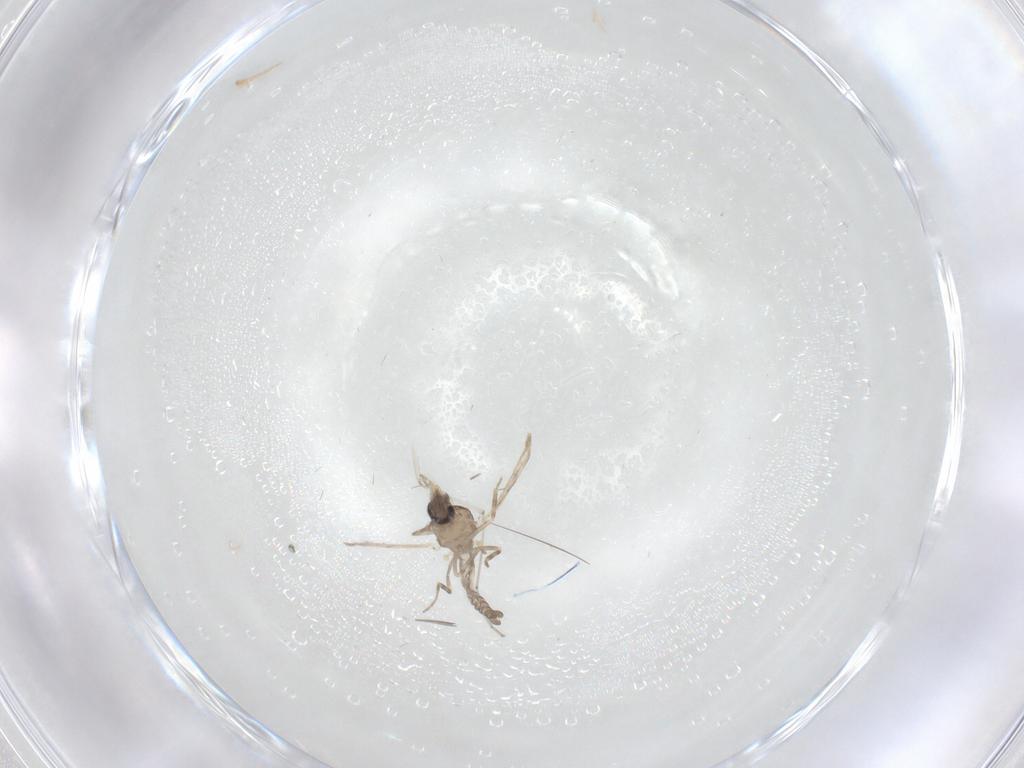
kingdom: Animalia
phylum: Arthropoda
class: Insecta
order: Diptera
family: Ceratopogonidae
